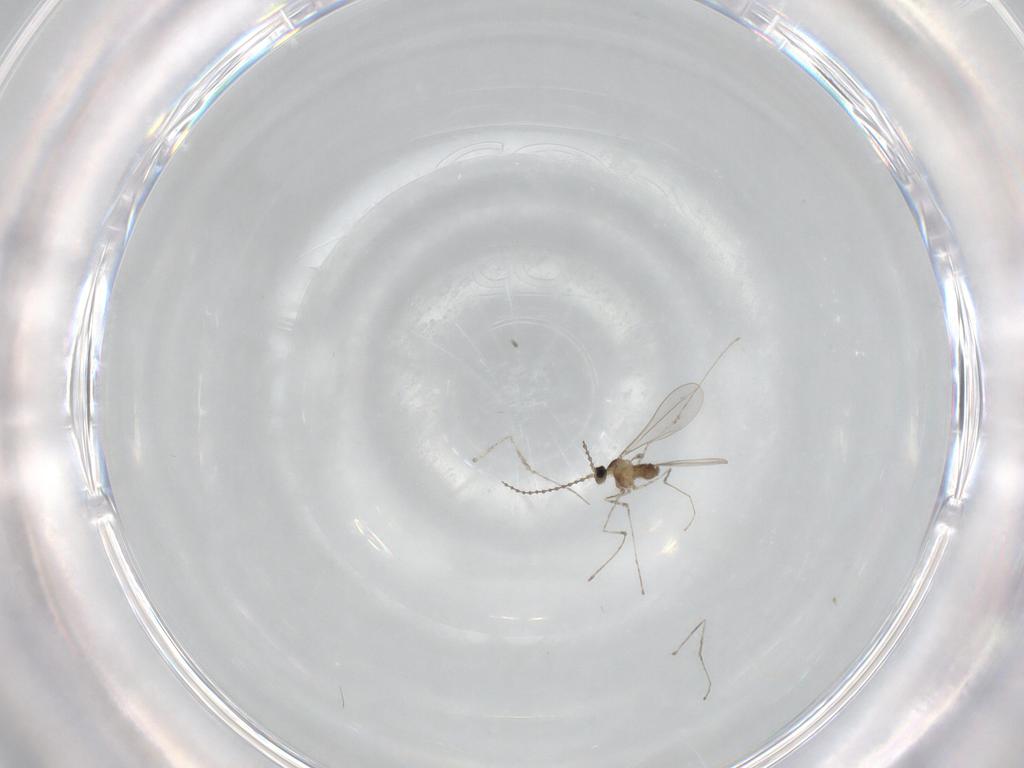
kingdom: Animalia
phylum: Arthropoda
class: Insecta
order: Diptera
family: Cecidomyiidae
